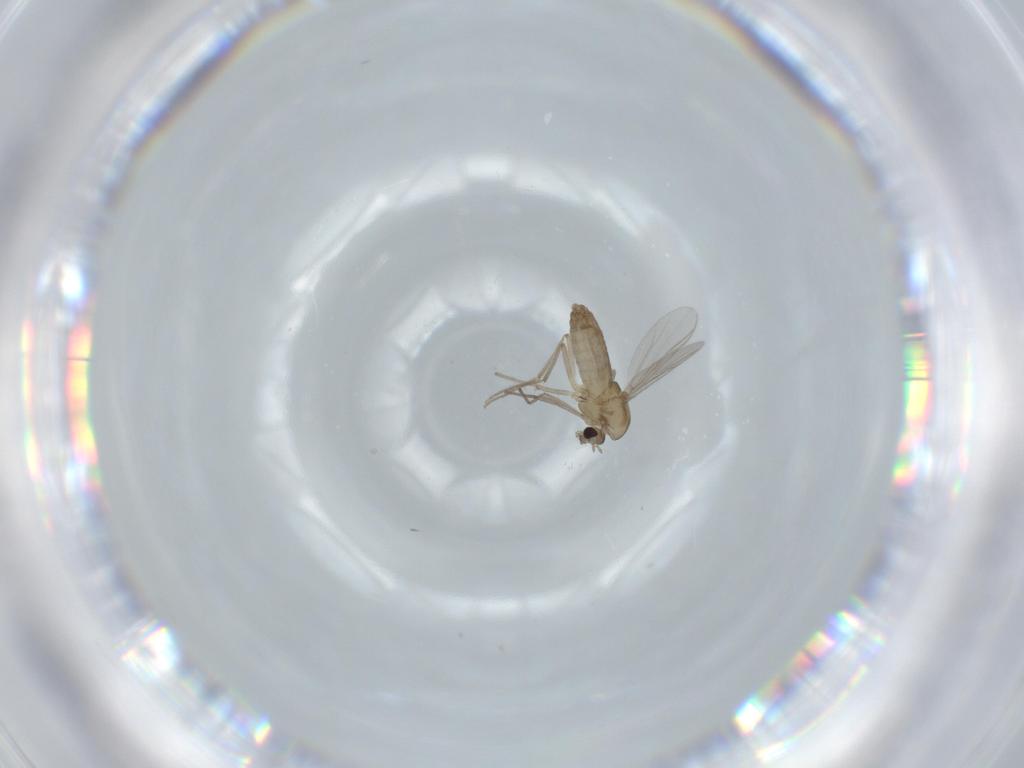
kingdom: Animalia
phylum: Arthropoda
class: Insecta
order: Diptera
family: Chironomidae
